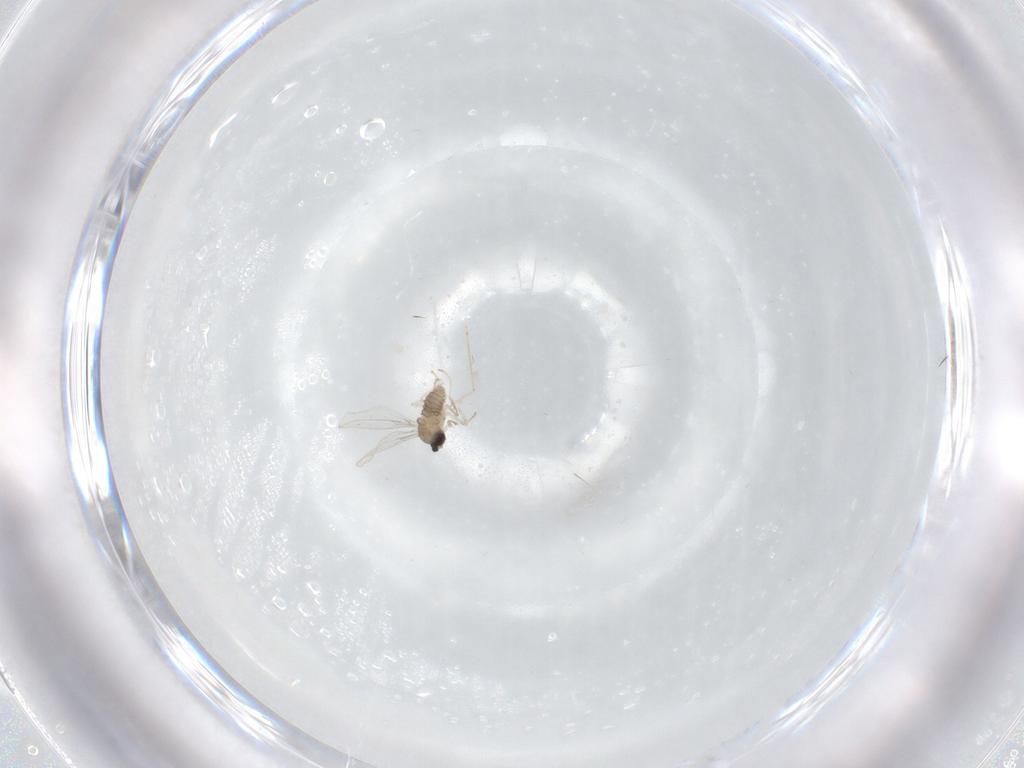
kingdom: Animalia
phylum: Arthropoda
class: Insecta
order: Diptera
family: Cecidomyiidae
